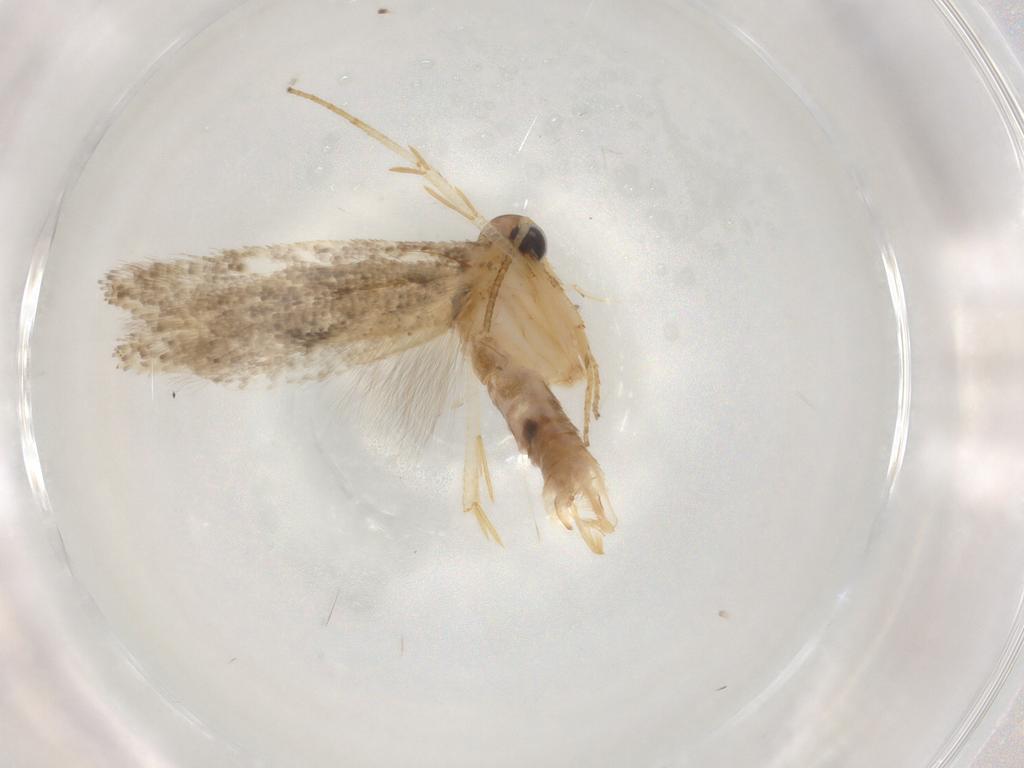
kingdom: Animalia
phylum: Arthropoda
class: Insecta
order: Lepidoptera
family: Gelechiidae
